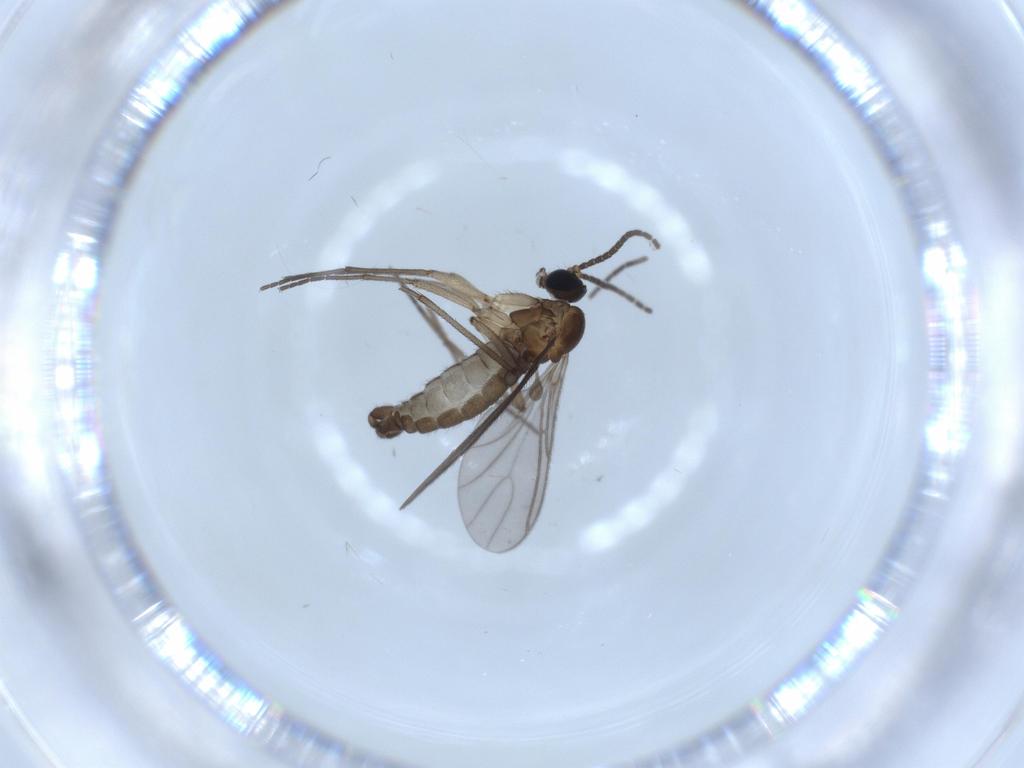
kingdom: Animalia
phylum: Arthropoda
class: Insecta
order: Diptera
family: Sciaridae
